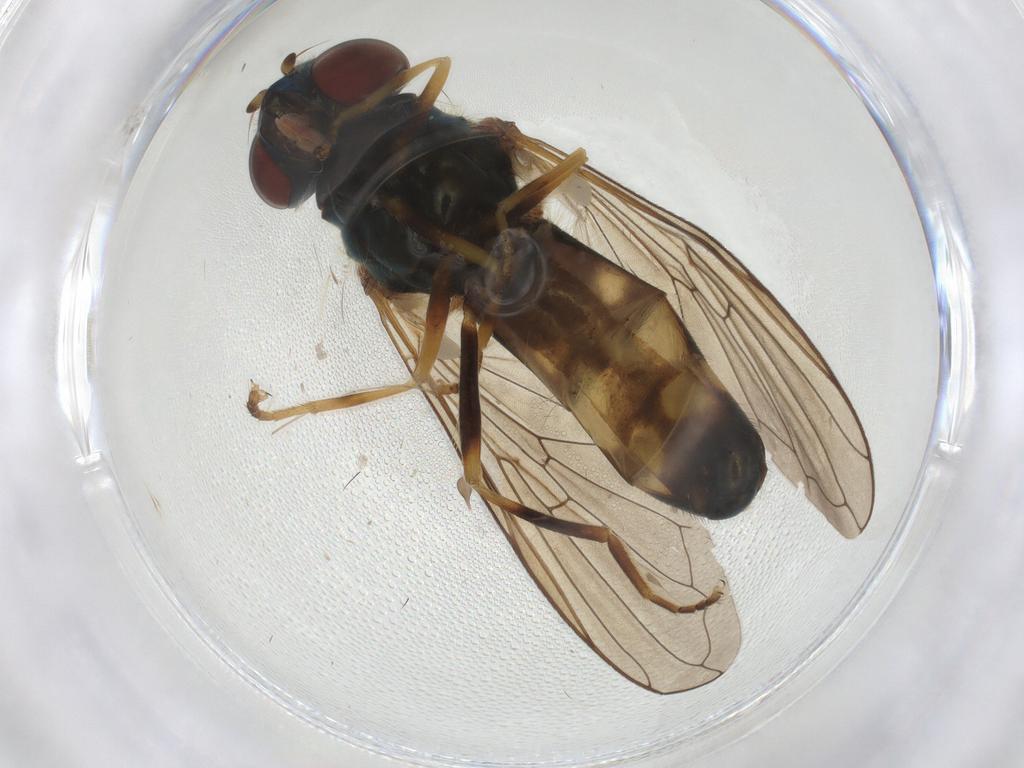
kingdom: Animalia
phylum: Arthropoda
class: Insecta
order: Diptera
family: Syrphidae
